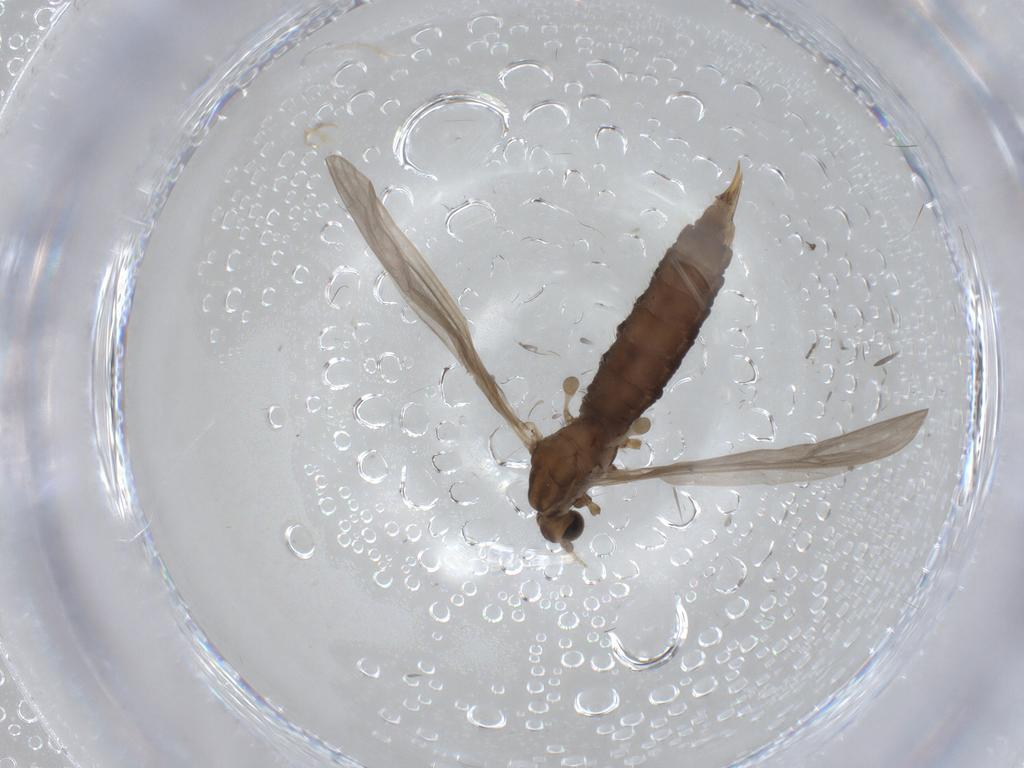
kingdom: Animalia
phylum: Arthropoda
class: Insecta
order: Diptera
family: Limoniidae
